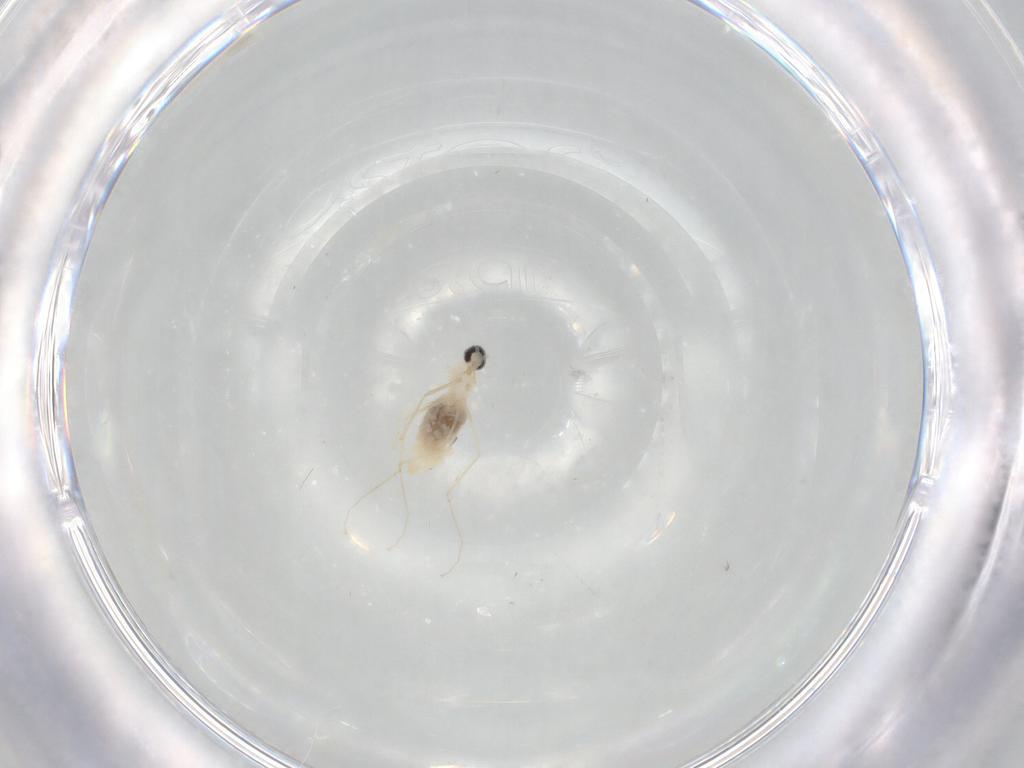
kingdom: Animalia
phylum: Arthropoda
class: Insecta
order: Diptera
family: Cecidomyiidae
